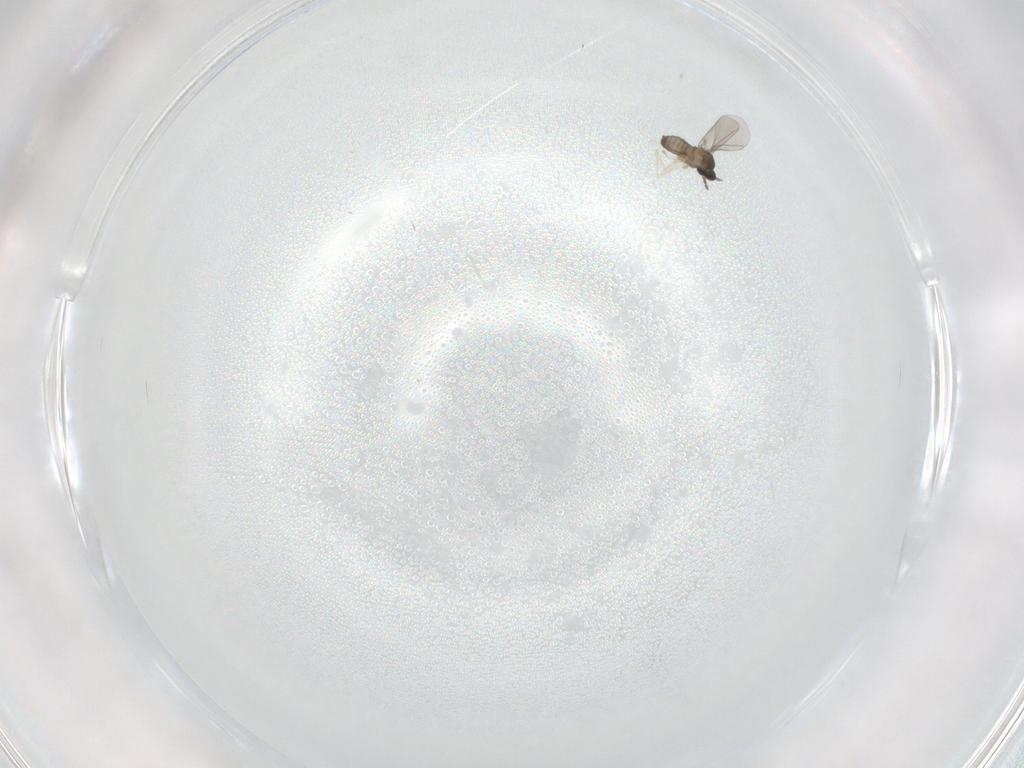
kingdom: Animalia
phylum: Arthropoda
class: Insecta
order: Diptera
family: Cecidomyiidae
